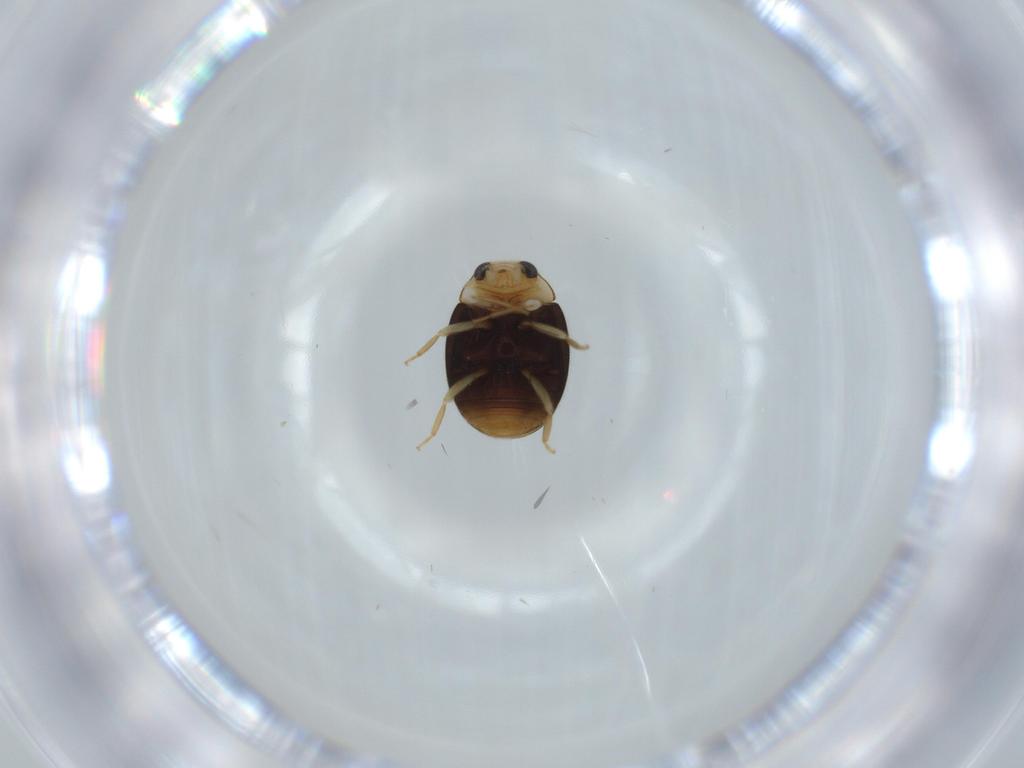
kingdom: Animalia
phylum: Arthropoda
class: Insecta
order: Coleoptera
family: Coccinellidae
